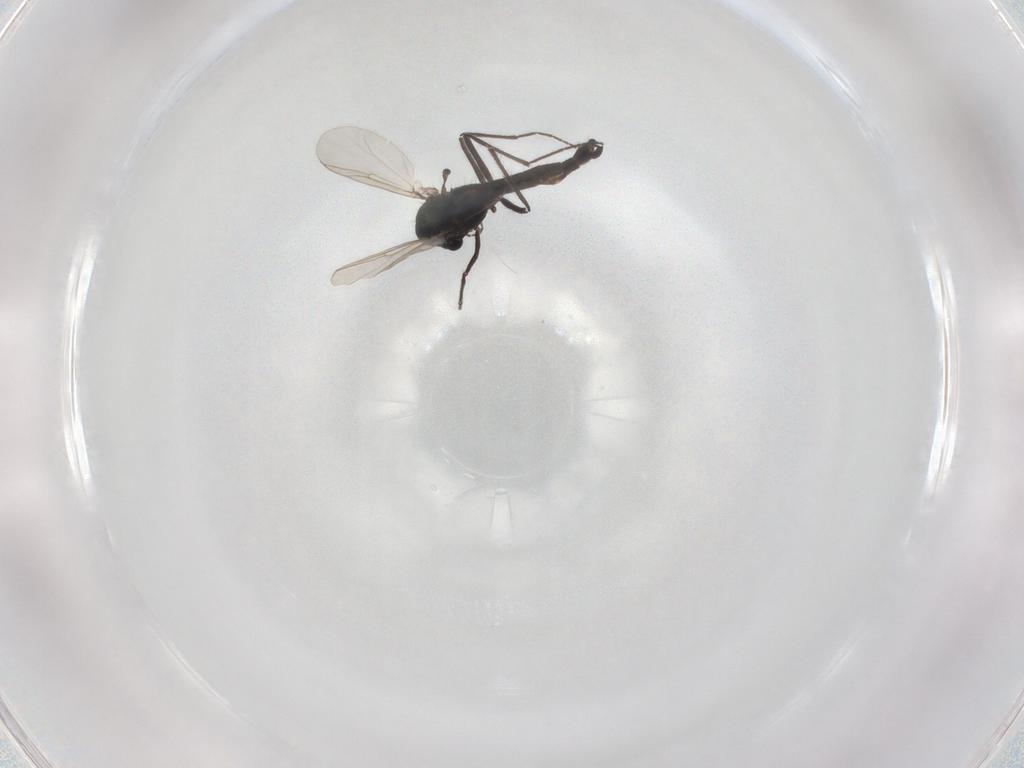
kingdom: Animalia
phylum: Arthropoda
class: Insecta
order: Diptera
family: Chironomidae
